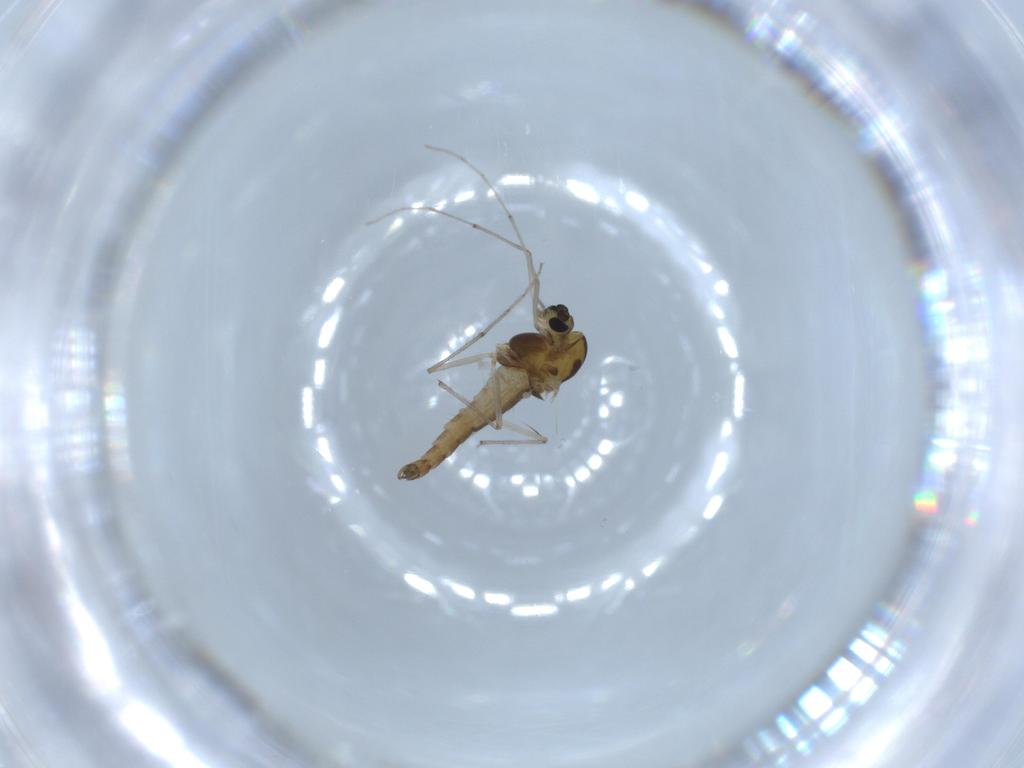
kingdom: Animalia
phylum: Arthropoda
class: Insecta
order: Diptera
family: Chironomidae
